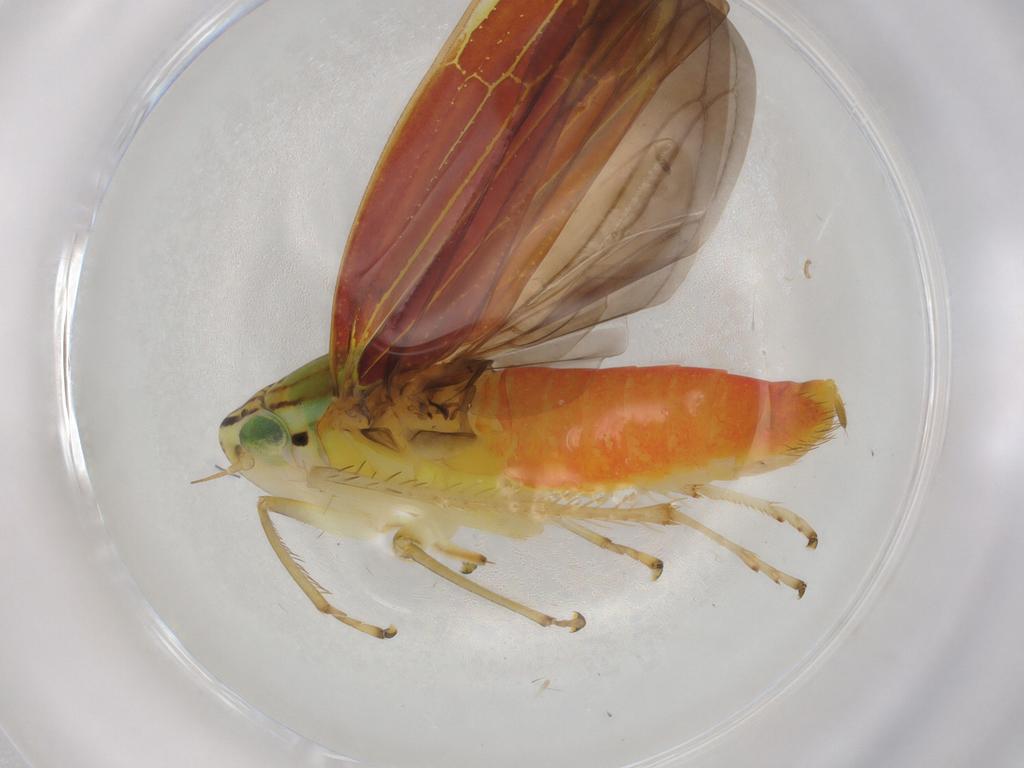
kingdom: Animalia
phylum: Arthropoda
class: Insecta
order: Hemiptera
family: Cicadellidae
